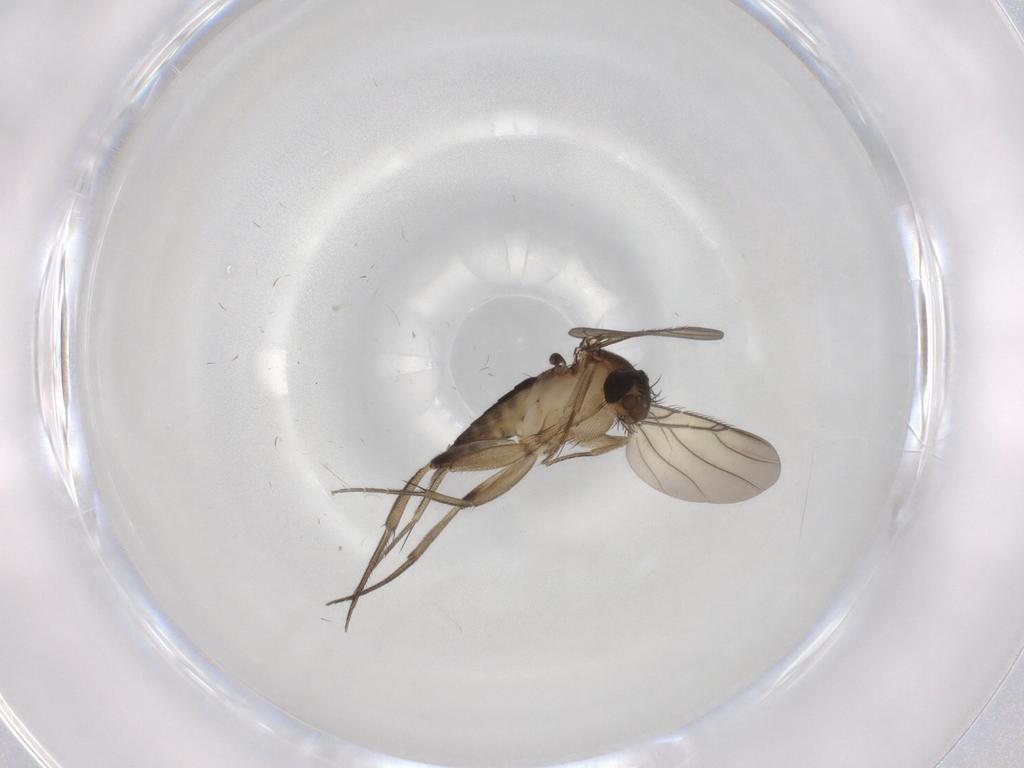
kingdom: Animalia
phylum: Arthropoda
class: Insecta
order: Diptera
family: Phoridae
